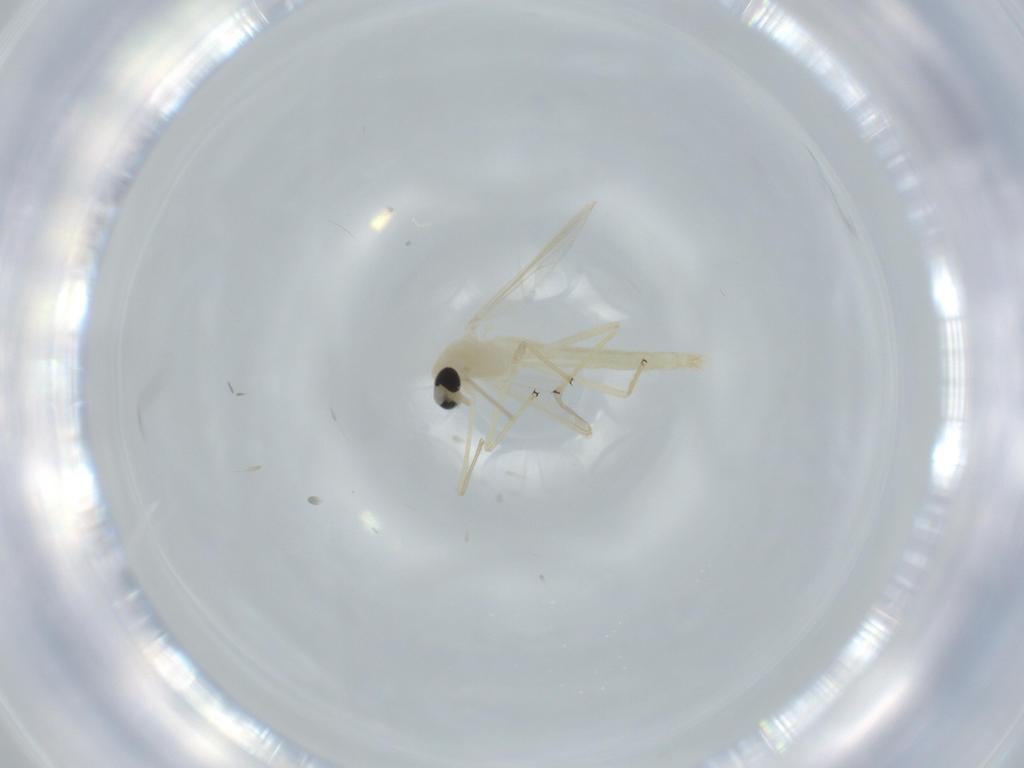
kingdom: Animalia
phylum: Arthropoda
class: Insecta
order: Diptera
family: Chironomidae
